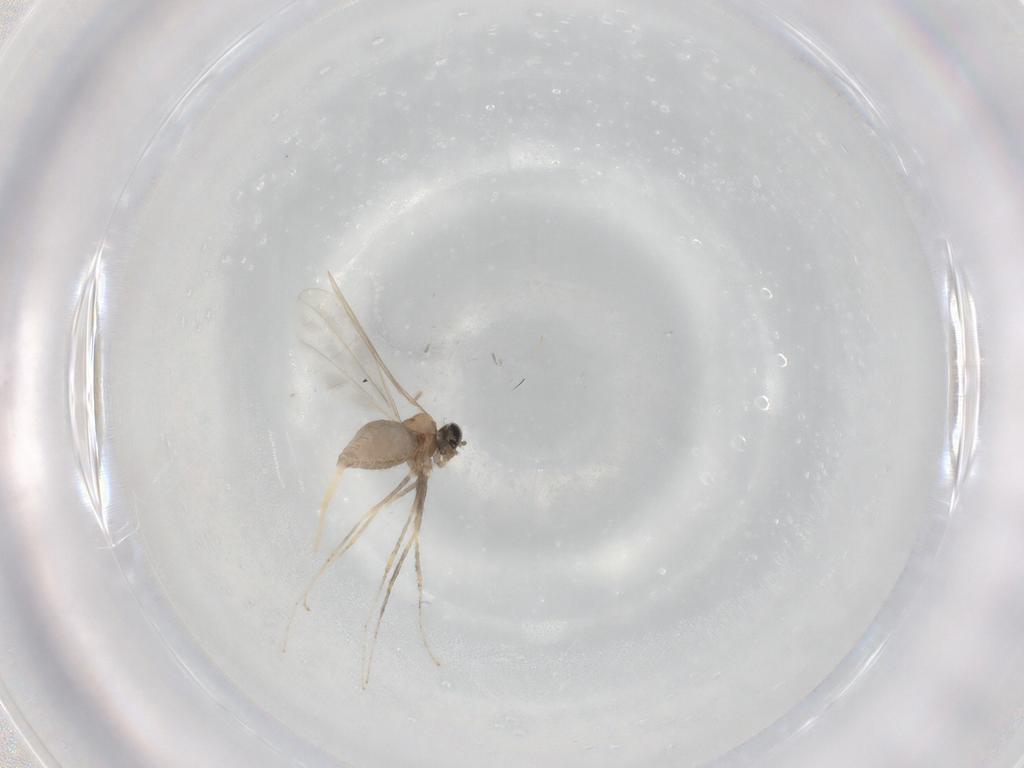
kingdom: Animalia
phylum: Arthropoda
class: Insecta
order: Diptera
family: Cecidomyiidae
